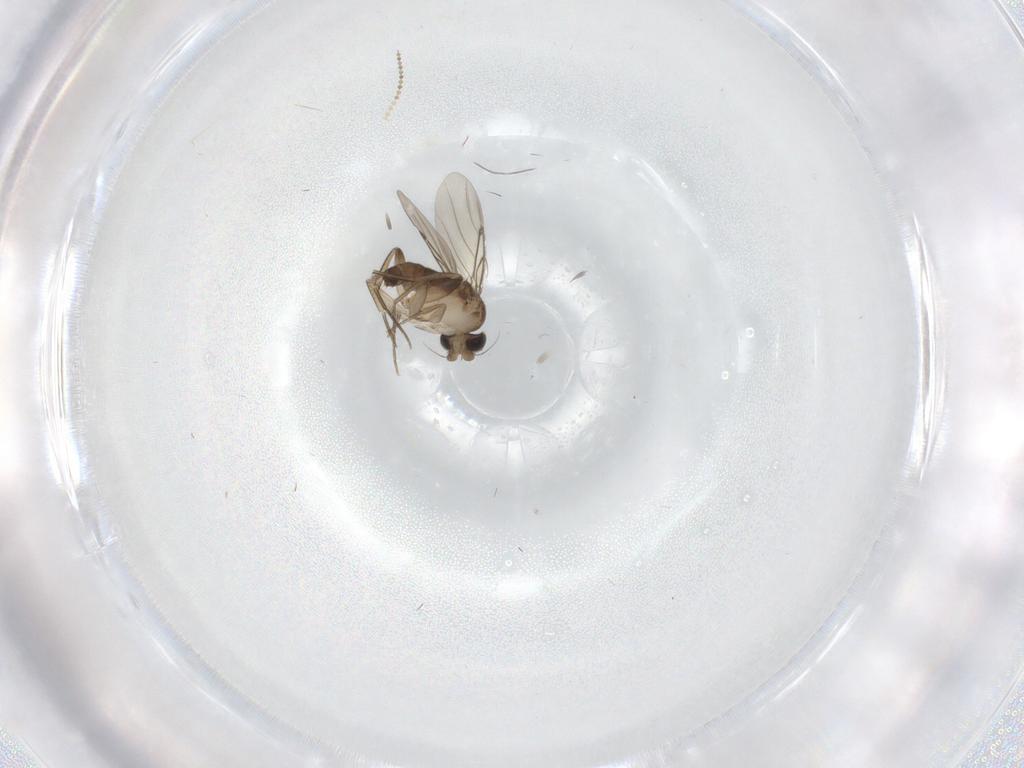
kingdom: Animalia
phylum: Arthropoda
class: Insecta
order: Diptera
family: Phoridae
